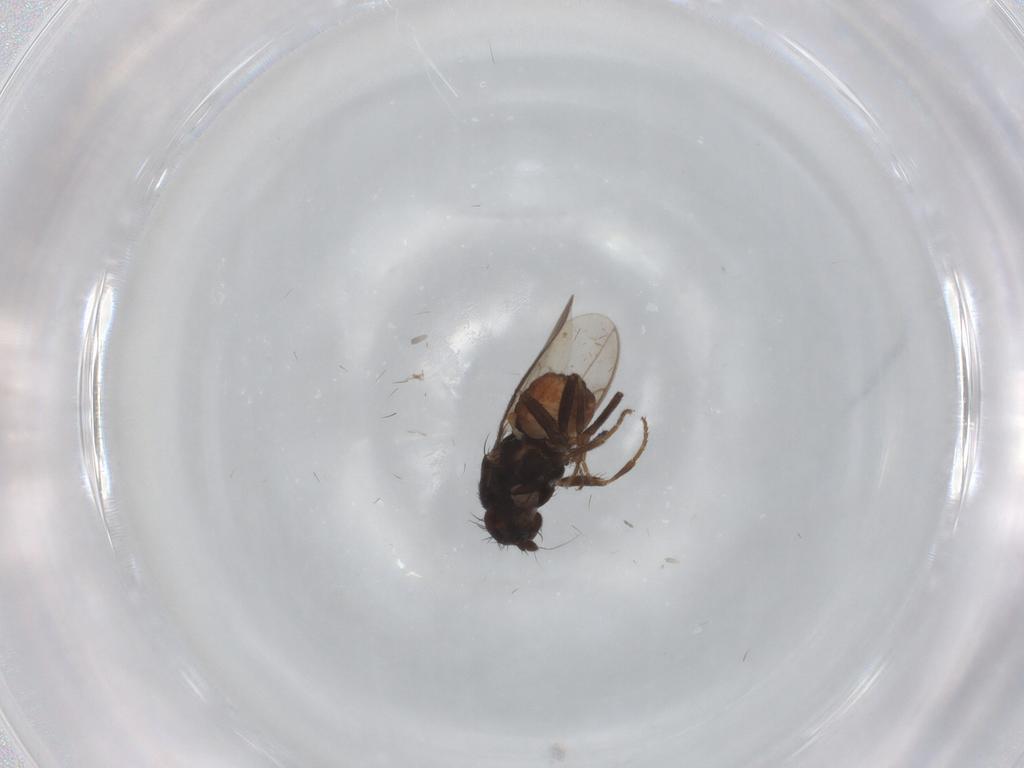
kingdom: Animalia
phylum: Arthropoda
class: Insecta
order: Diptera
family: Sphaeroceridae
